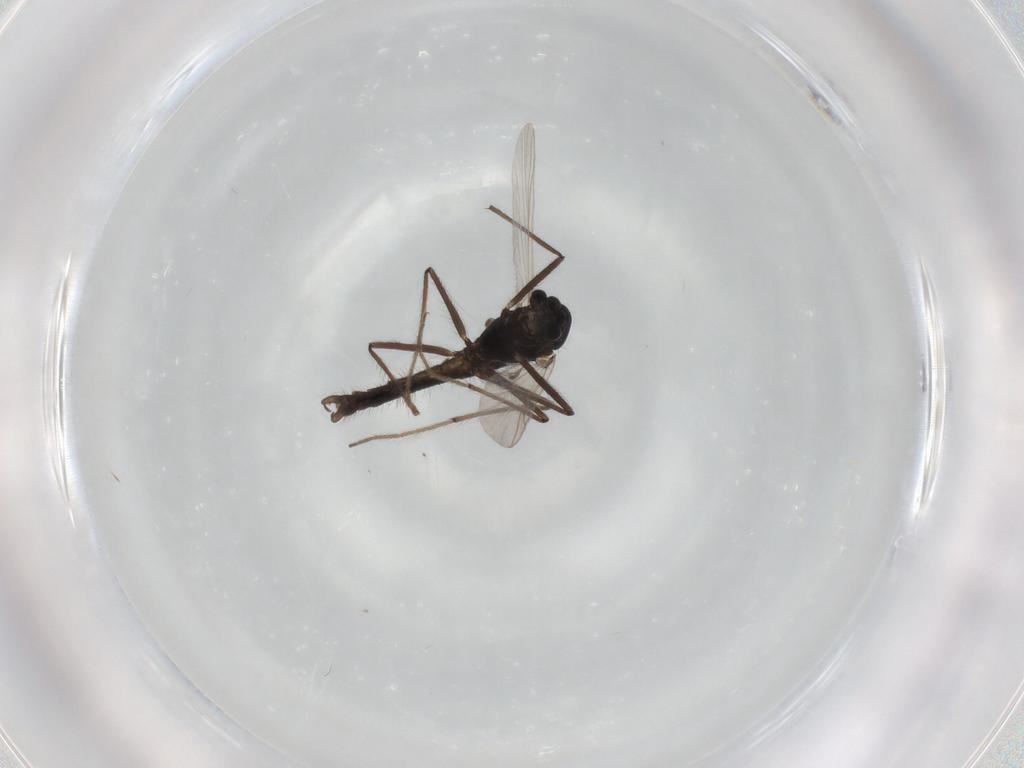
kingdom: Animalia
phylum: Arthropoda
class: Insecta
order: Diptera
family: Chironomidae
